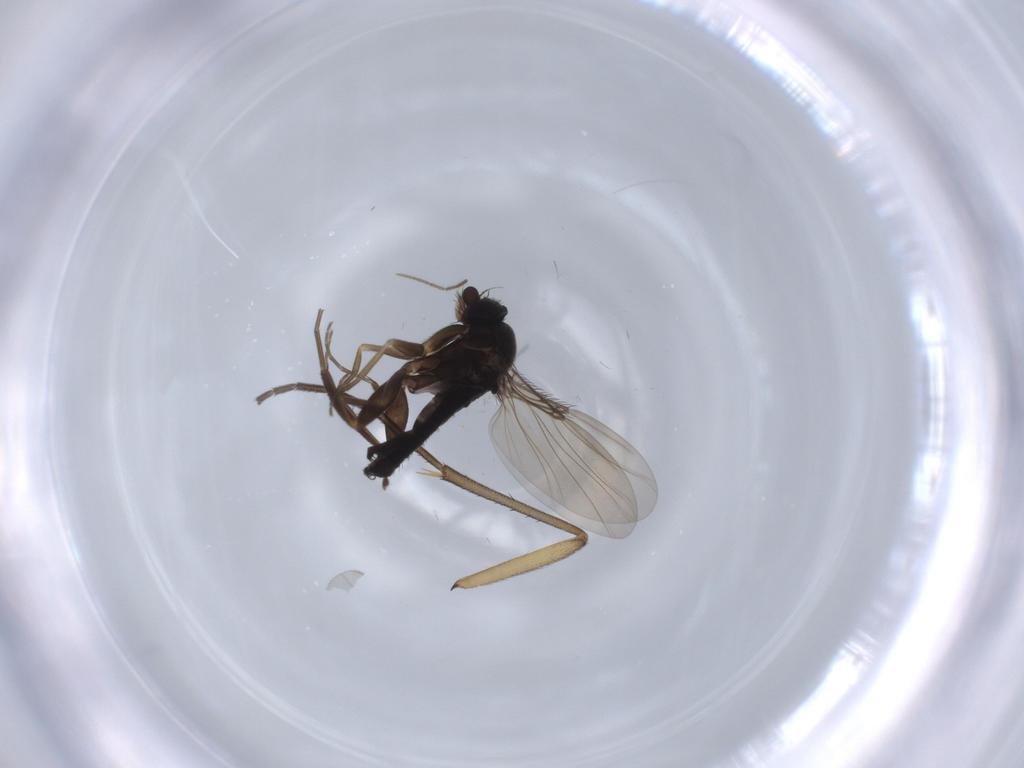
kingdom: Animalia
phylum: Arthropoda
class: Insecta
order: Diptera
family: Phoridae
